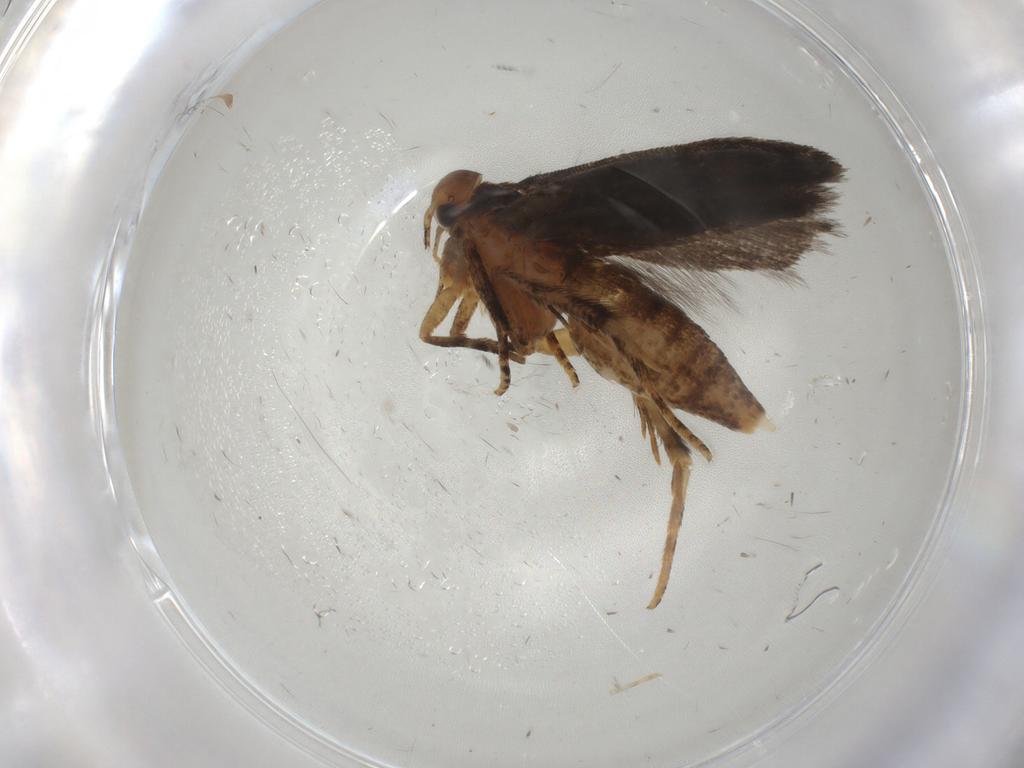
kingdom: Animalia
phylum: Arthropoda
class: Insecta
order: Lepidoptera
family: Gelechiidae
